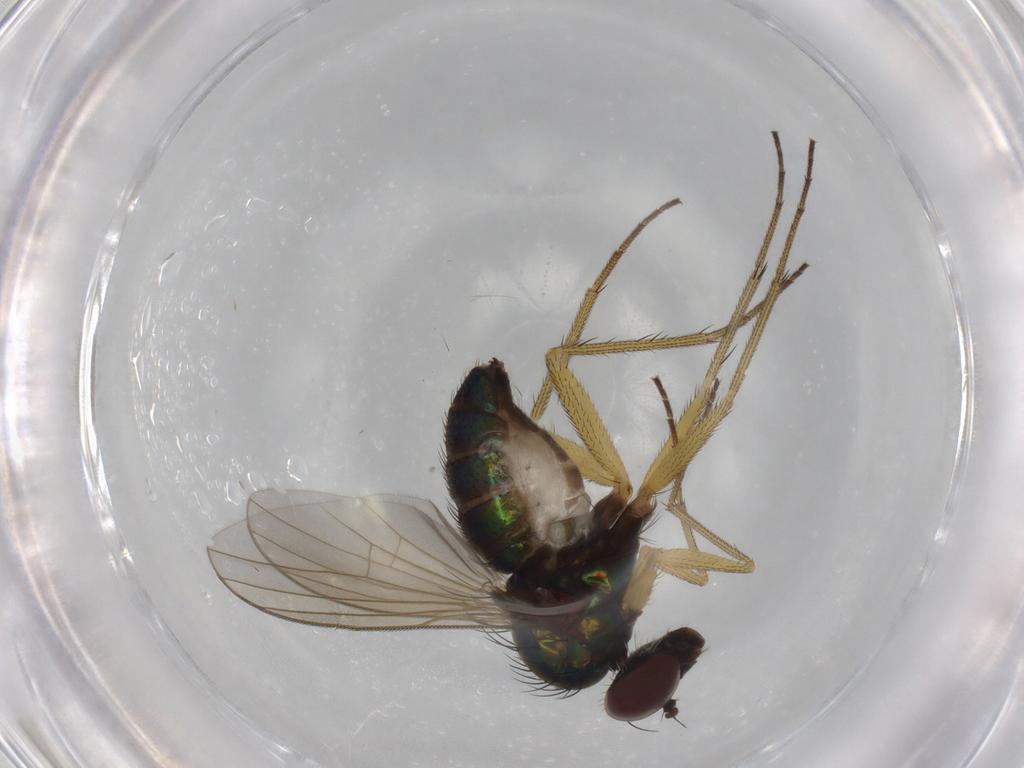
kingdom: Animalia
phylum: Arthropoda
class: Insecta
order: Diptera
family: Dolichopodidae
